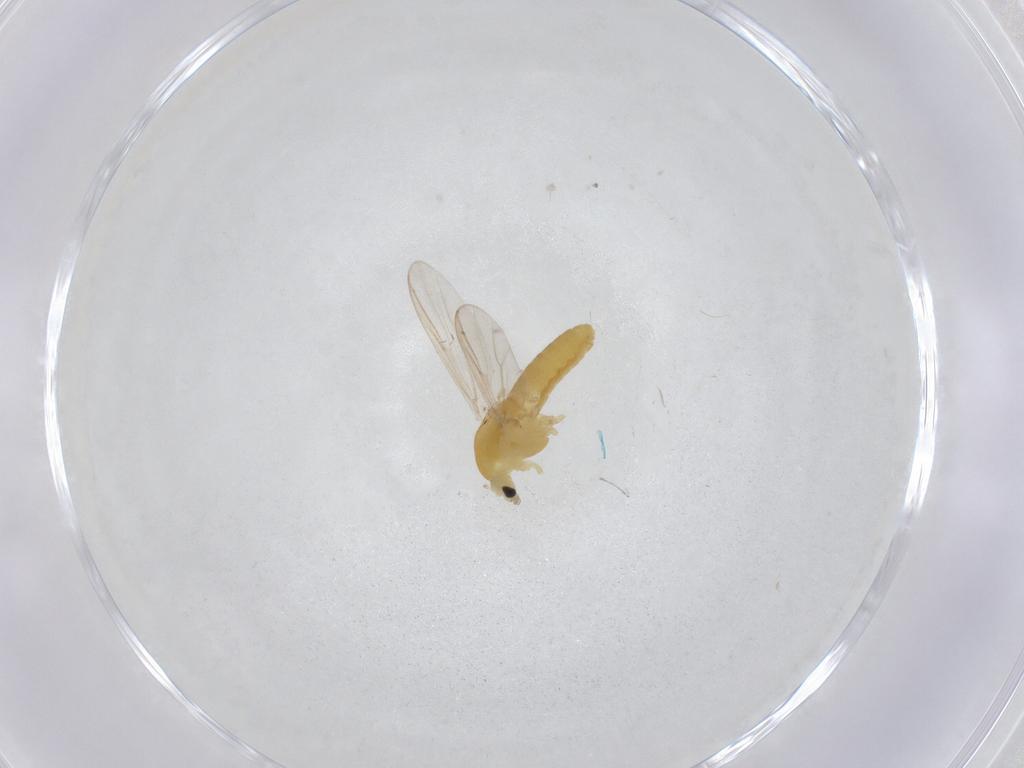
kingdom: Animalia
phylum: Arthropoda
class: Insecta
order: Diptera
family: Chironomidae
